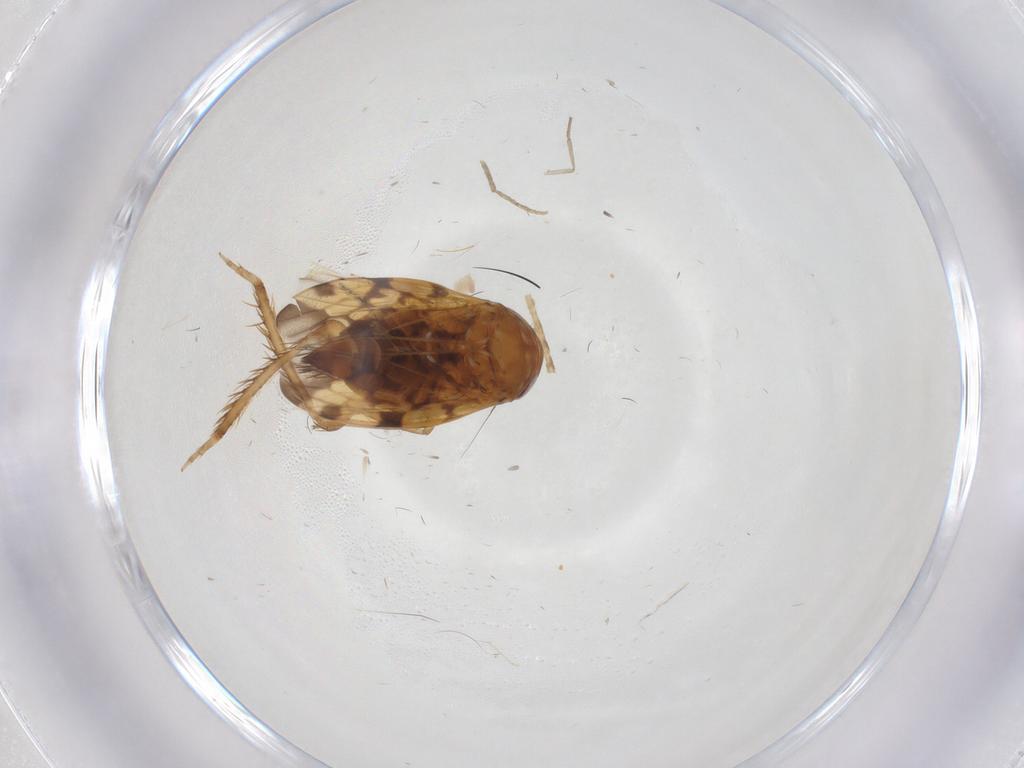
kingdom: Animalia
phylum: Arthropoda
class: Insecta
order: Hemiptera
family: Cicadellidae
